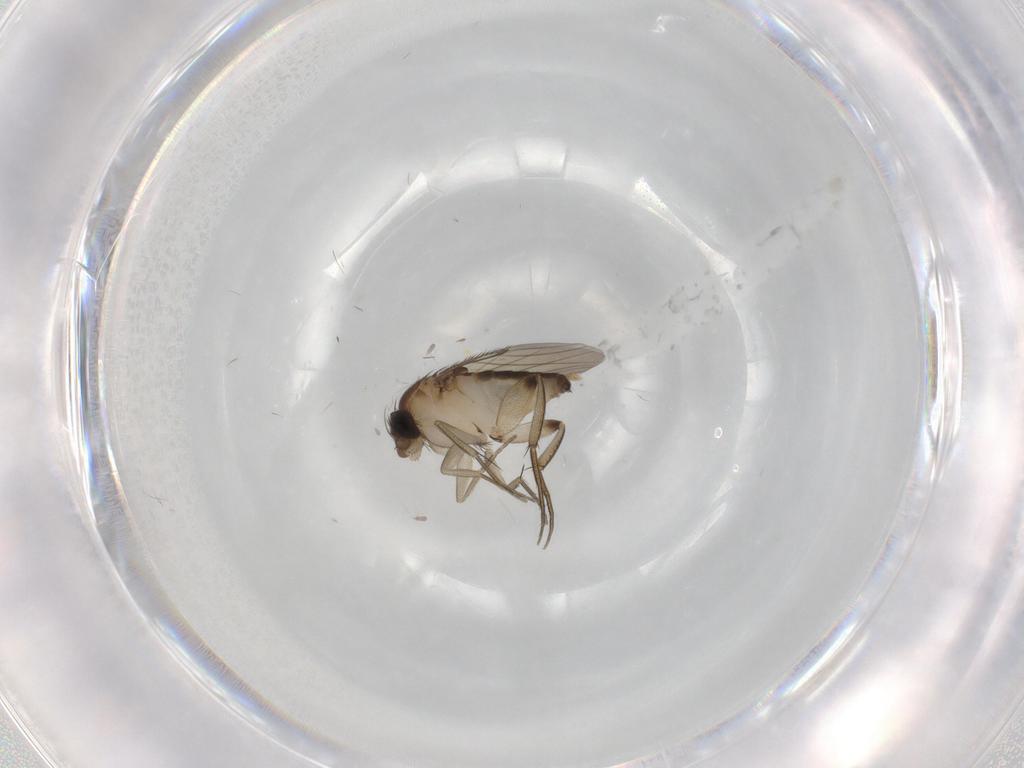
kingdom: Animalia
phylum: Arthropoda
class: Insecta
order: Diptera
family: Phoridae
